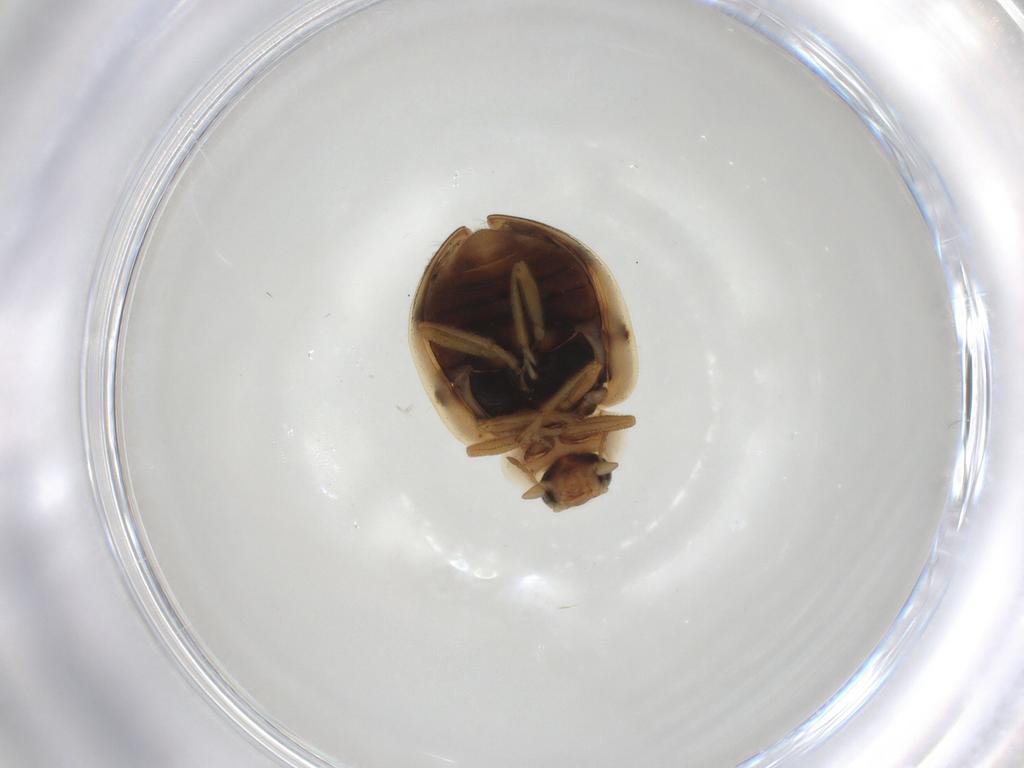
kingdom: Animalia
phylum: Arthropoda
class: Insecta
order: Coleoptera
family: Coccinellidae
